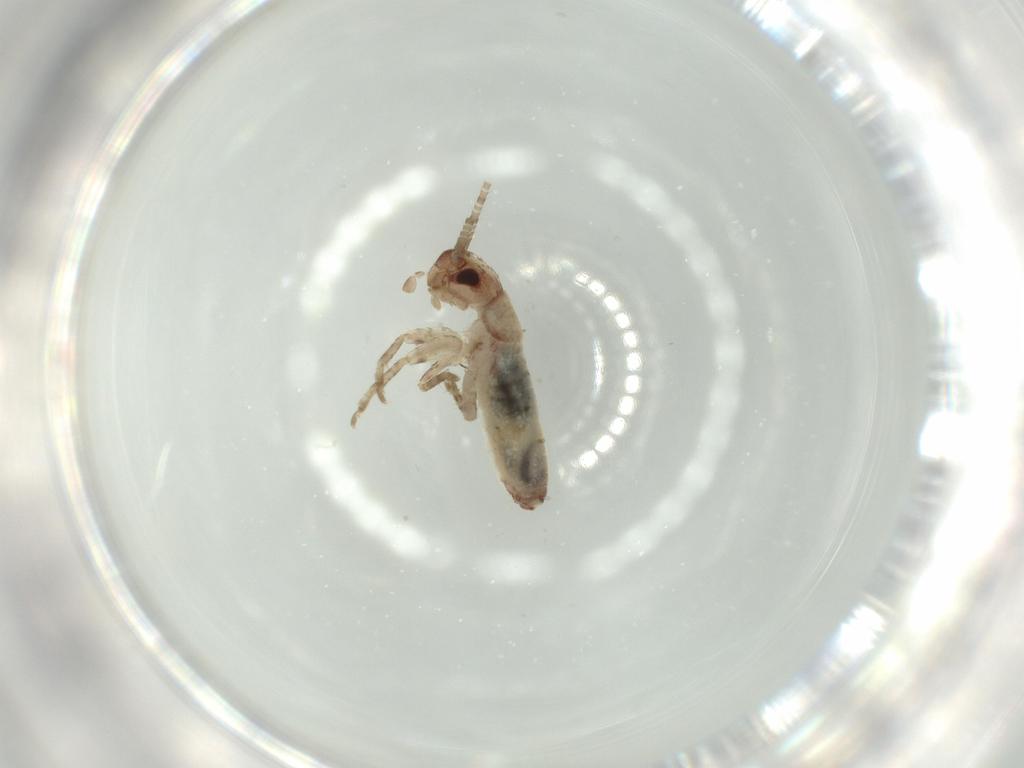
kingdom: Animalia
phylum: Arthropoda
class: Insecta
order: Orthoptera
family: Gryllidae
